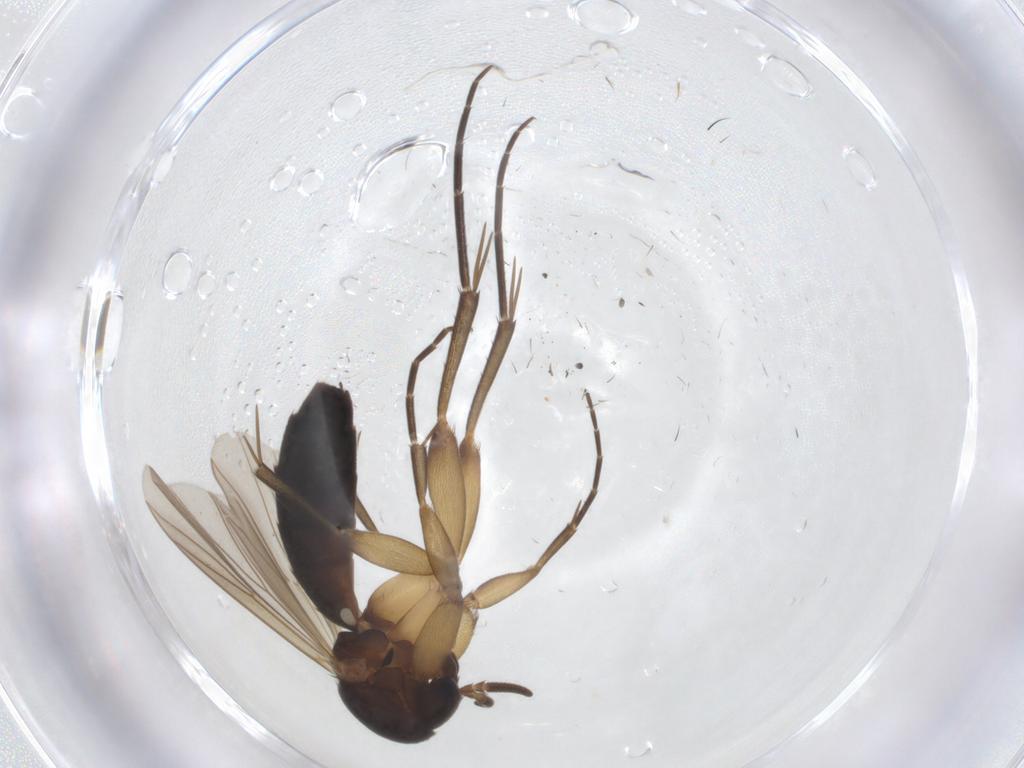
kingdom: Animalia
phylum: Arthropoda
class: Insecta
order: Diptera
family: Mycetophilidae
